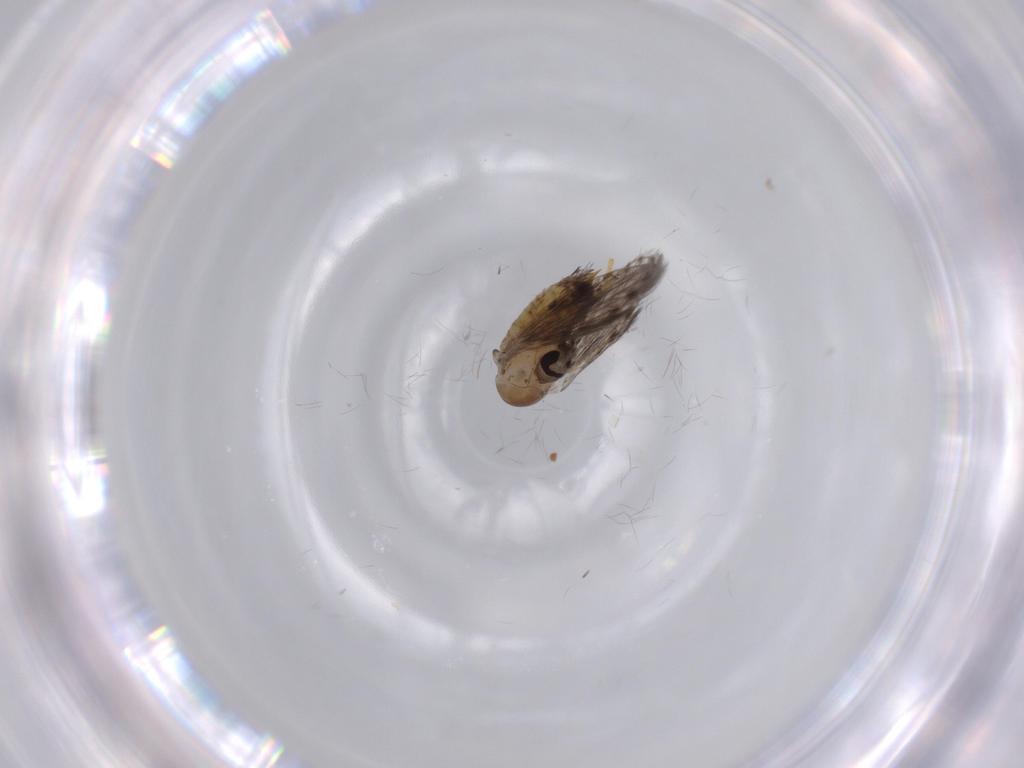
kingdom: Animalia
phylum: Arthropoda
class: Insecta
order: Diptera
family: Psychodidae
